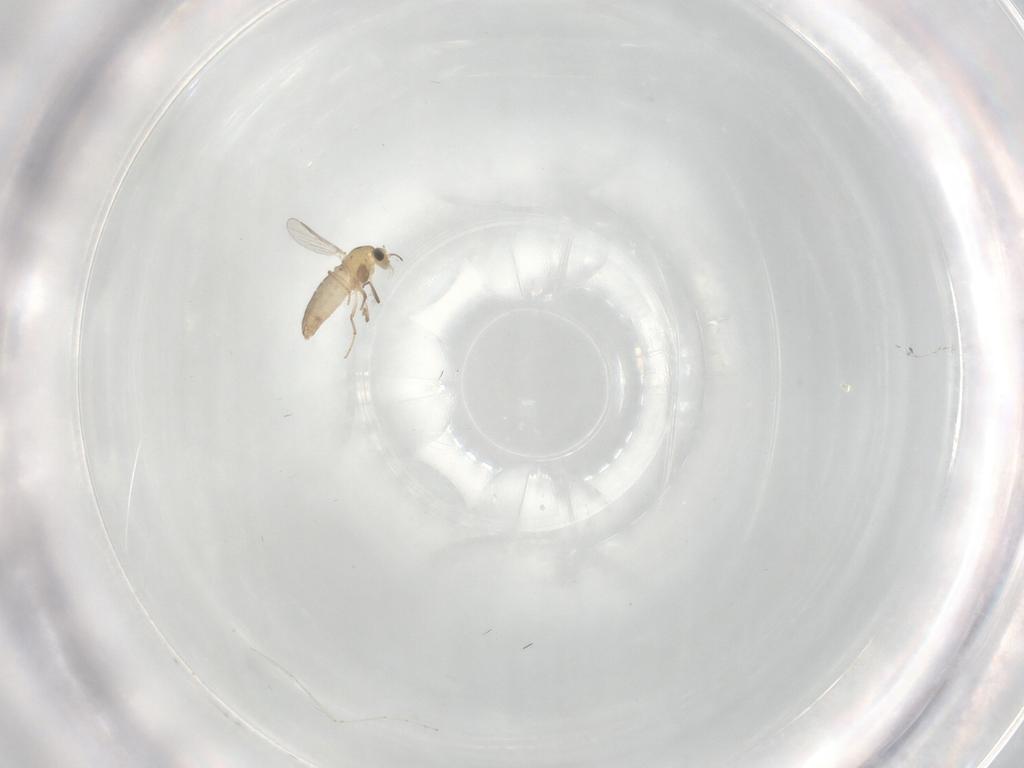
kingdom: Animalia
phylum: Arthropoda
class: Insecta
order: Diptera
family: Chironomidae
